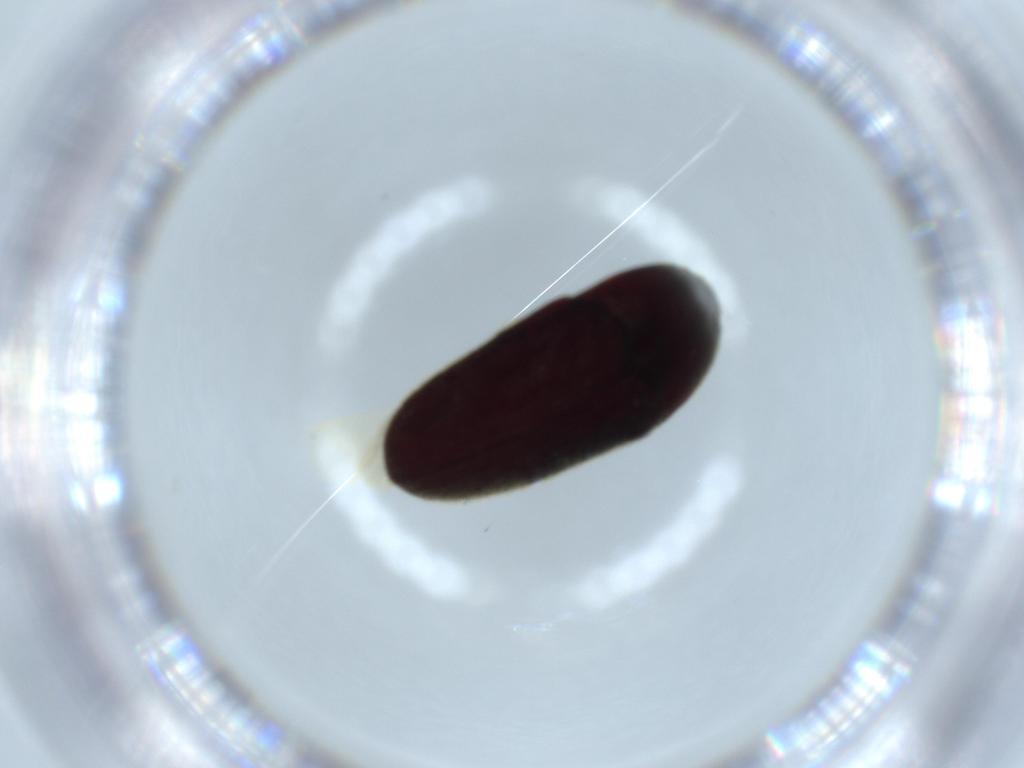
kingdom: Animalia
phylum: Arthropoda
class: Insecta
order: Coleoptera
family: Throscidae
